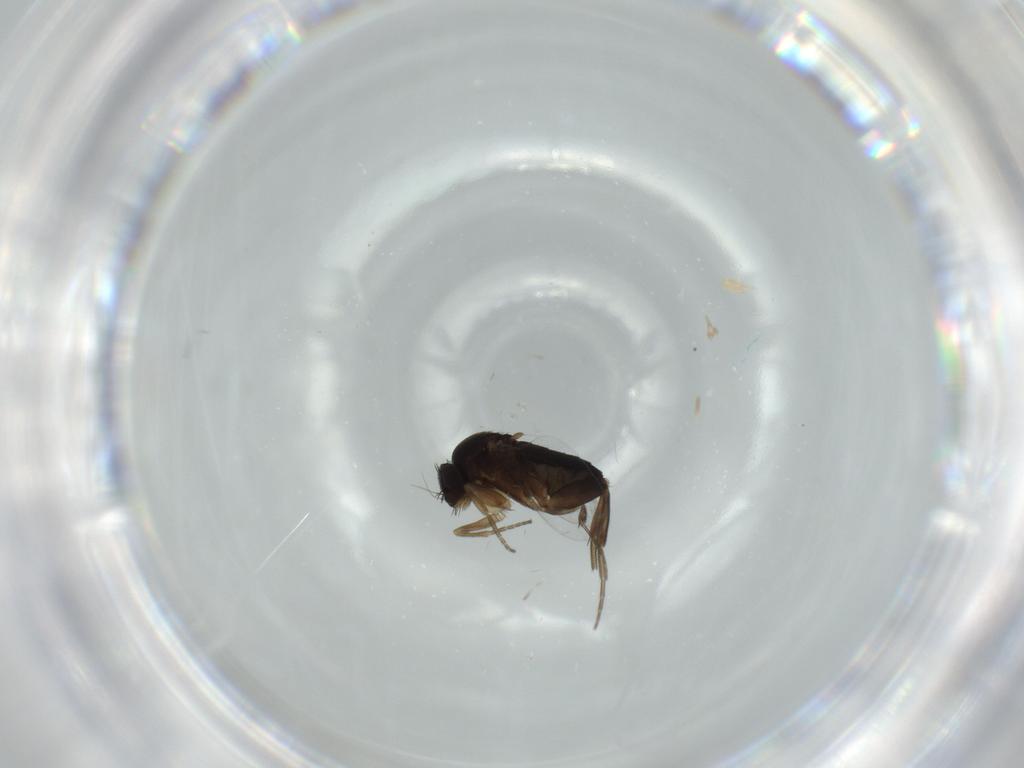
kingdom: Animalia
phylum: Arthropoda
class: Insecta
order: Diptera
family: Phoridae
